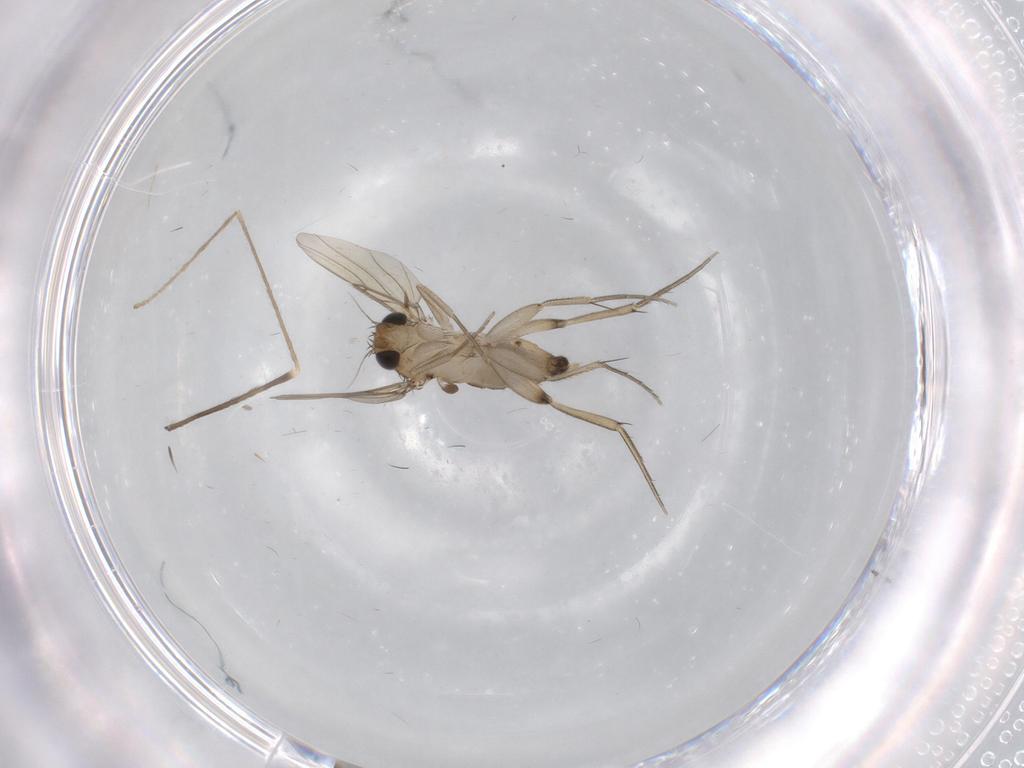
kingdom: Animalia
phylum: Arthropoda
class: Insecta
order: Diptera
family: Phoridae
